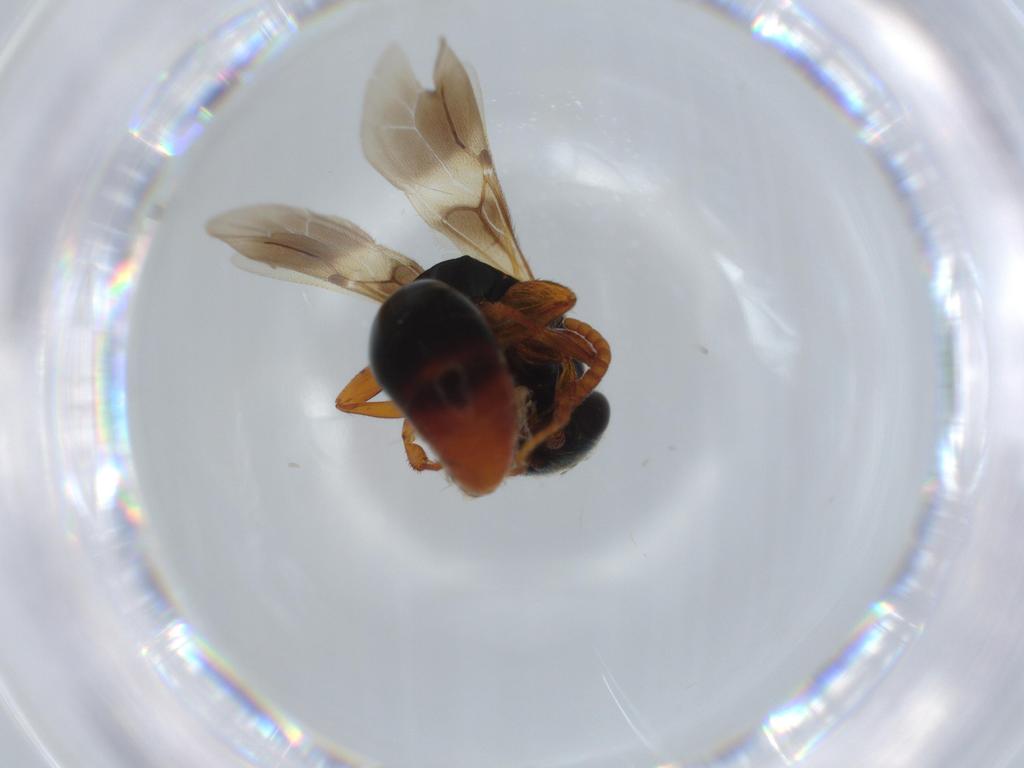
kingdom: Animalia
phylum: Arthropoda
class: Insecta
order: Hymenoptera
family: Bethylidae
